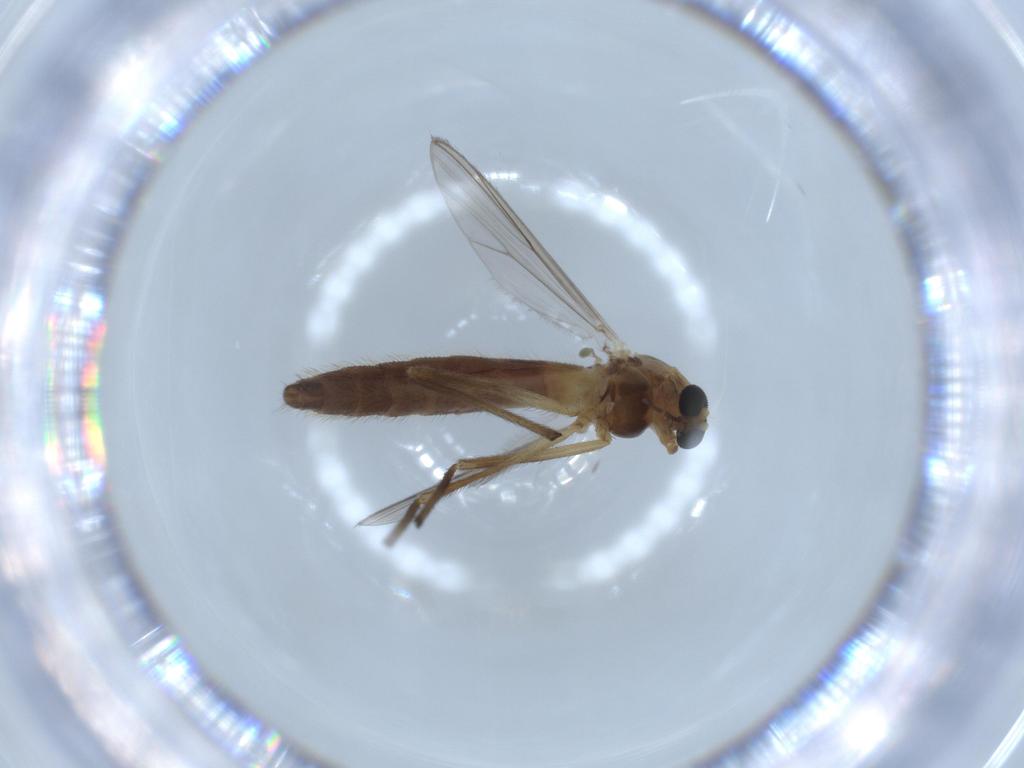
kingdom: Animalia
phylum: Arthropoda
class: Insecta
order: Diptera
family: Chironomidae
